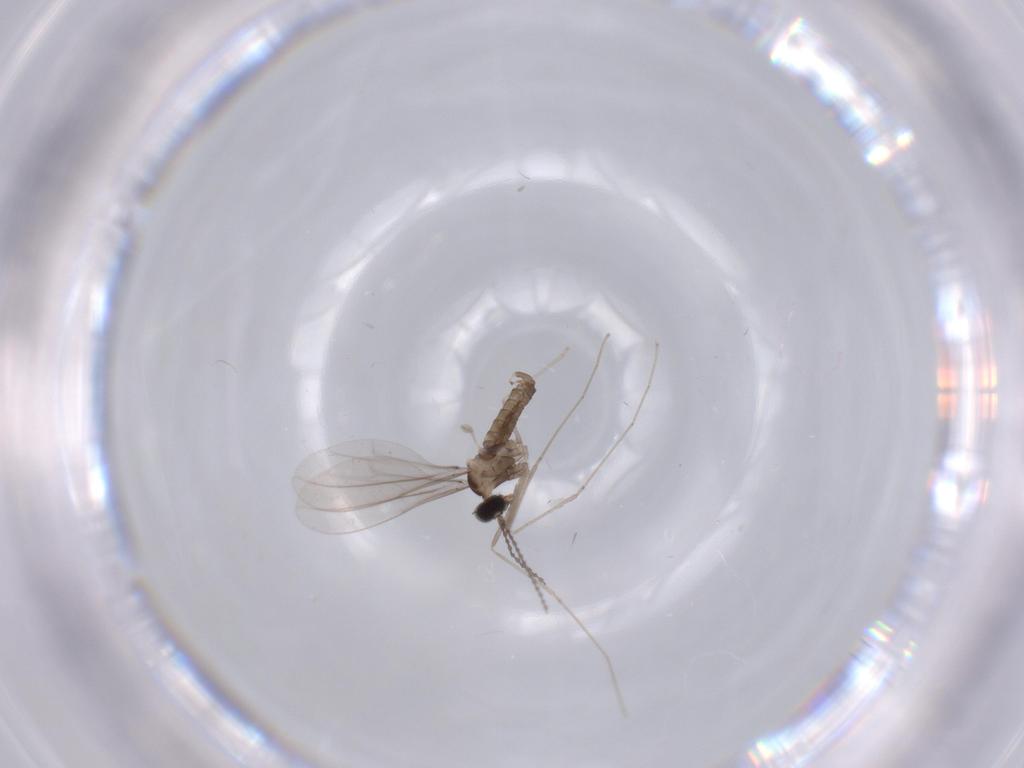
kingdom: Animalia
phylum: Arthropoda
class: Insecta
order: Diptera
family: Cecidomyiidae
